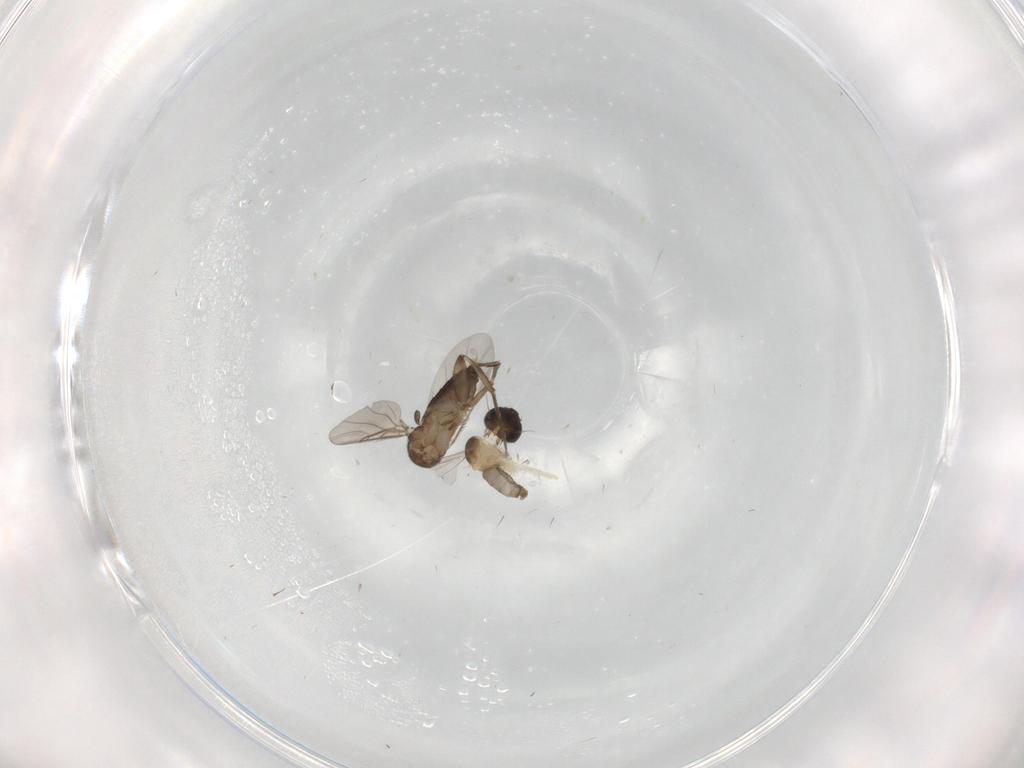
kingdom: Animalia
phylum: Arthropoda
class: Insecta
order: Diptera
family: Phoridae
